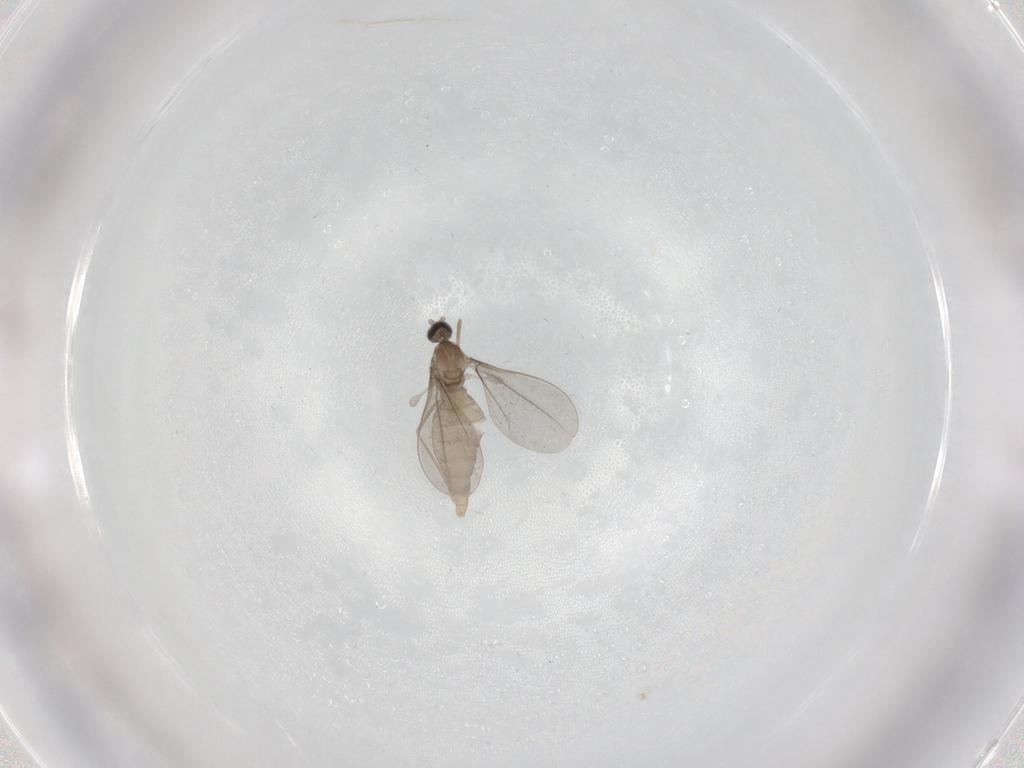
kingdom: Animalia
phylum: Arthropoda
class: Insecta
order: Diptera
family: Cecidomyiidae
